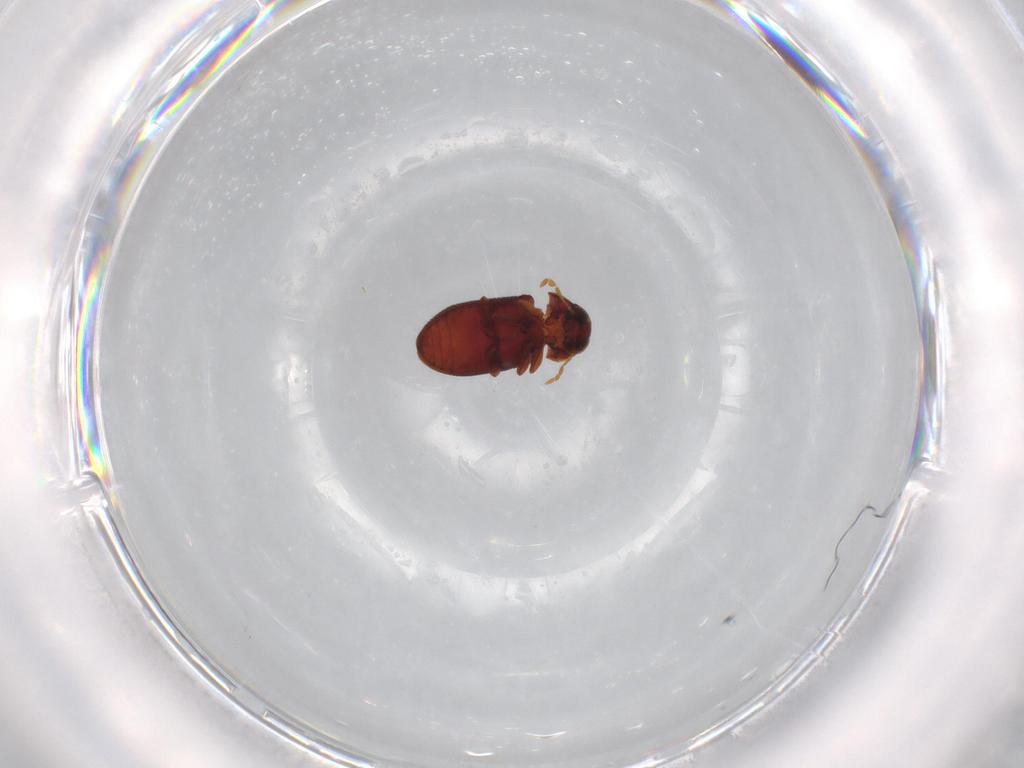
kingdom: Animalia
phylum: Arthropoda
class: Insecta
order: Coleoptera
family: Ptinidae
